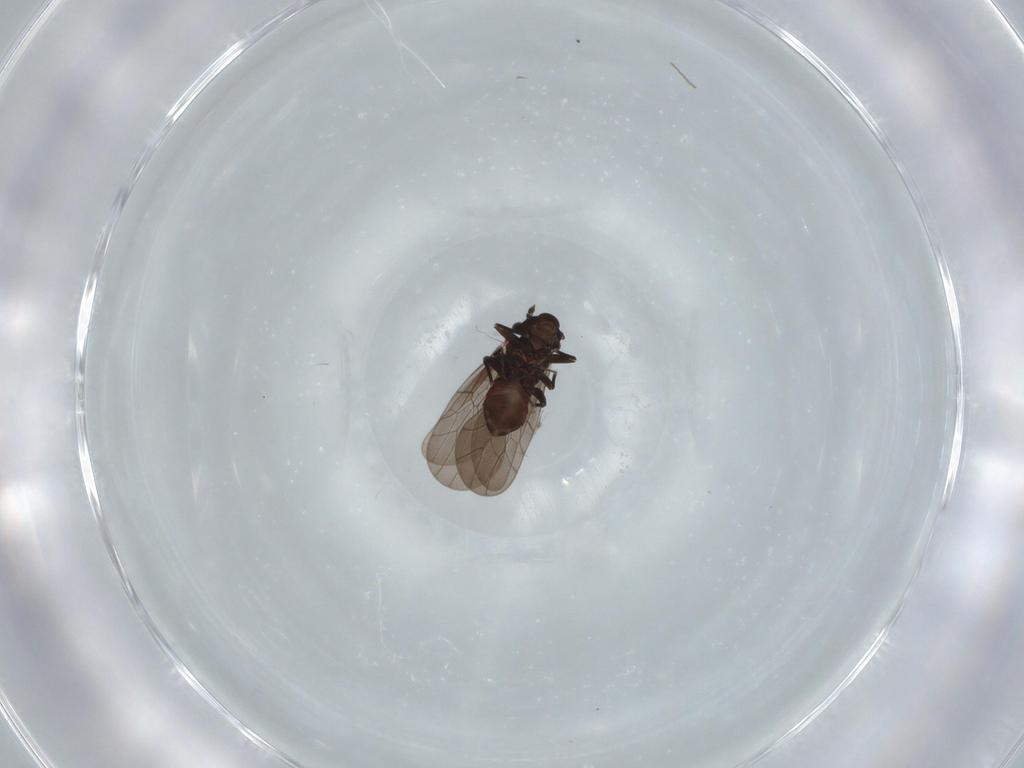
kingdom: Animalia
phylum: Arthropoda
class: Insecta
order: Psocodea
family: Lepidopsocidae
